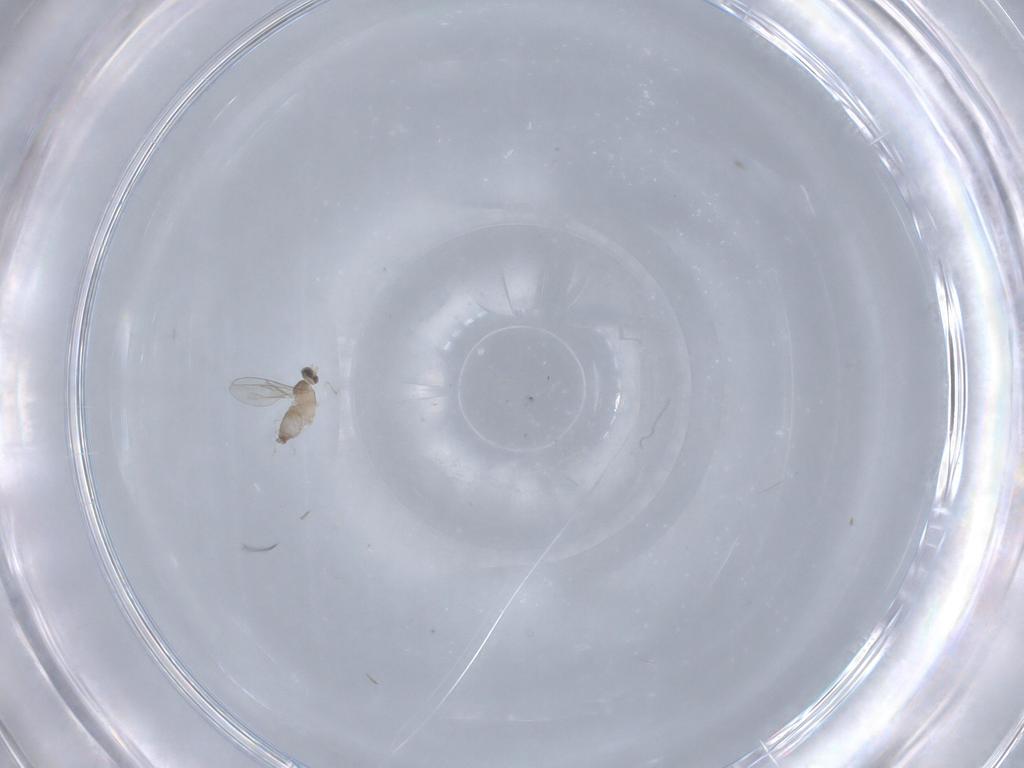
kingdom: Animalia
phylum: Arthropoda
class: Insecta
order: Diptera
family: Cecidomyiidae
